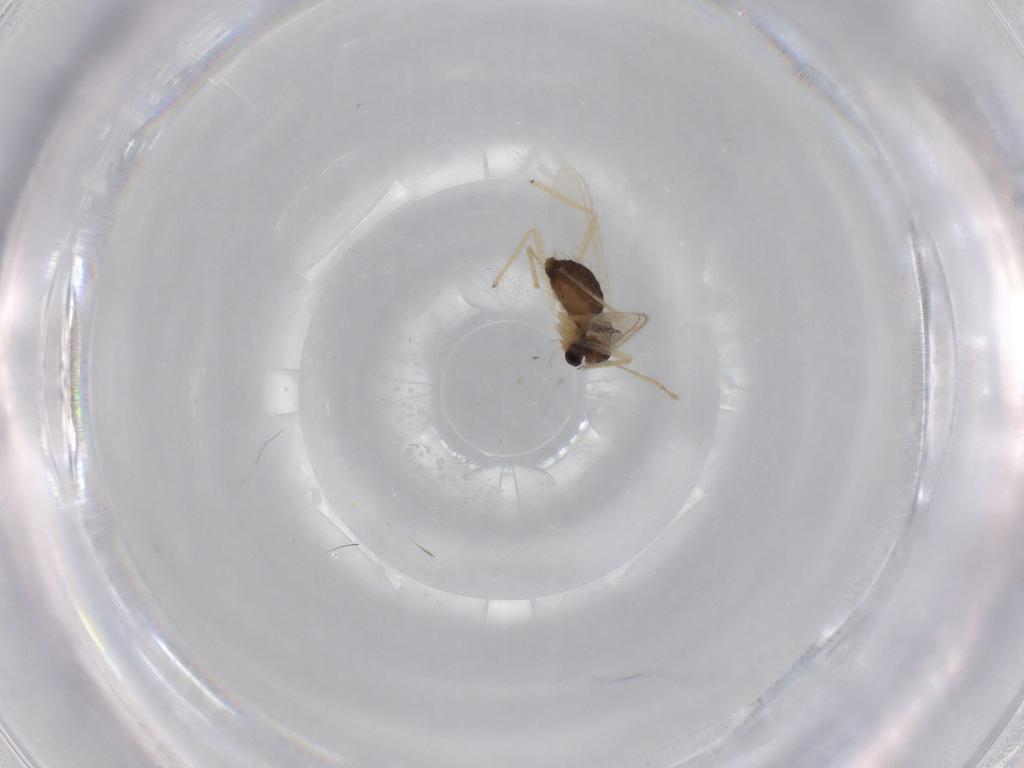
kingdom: Animalia
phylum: Arthropoda
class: Insecta
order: Diptera
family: Chironomidae
